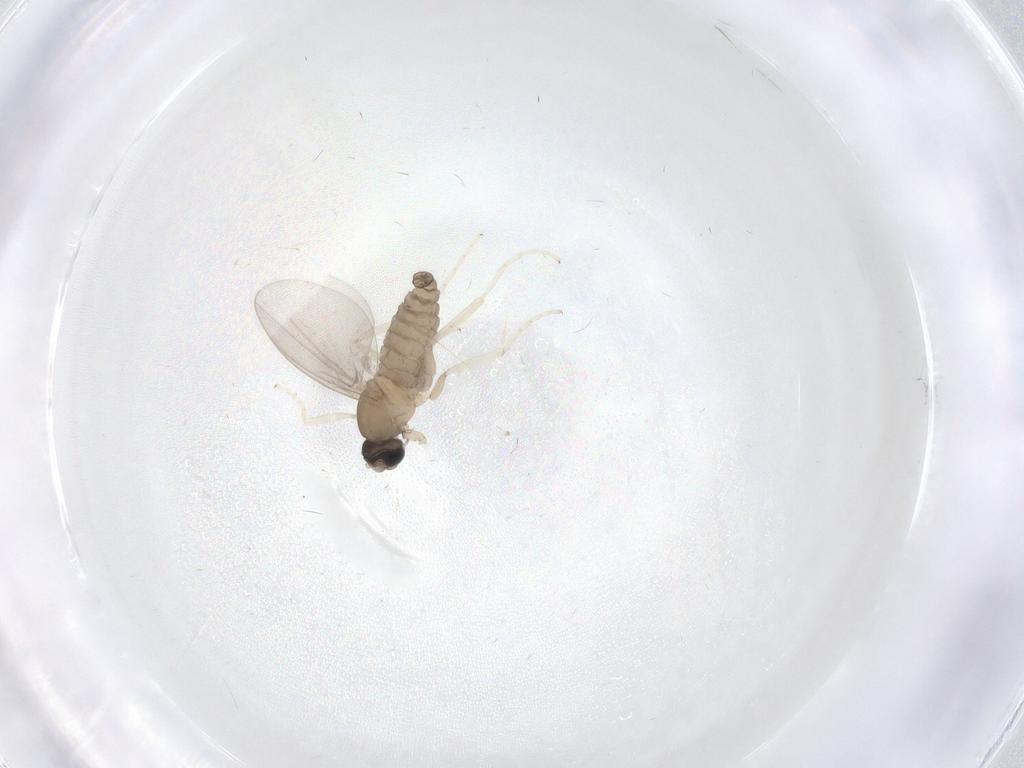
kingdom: Animalia
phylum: Arthropoda
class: Insecta
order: Diptera
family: Cecidomyiidae
